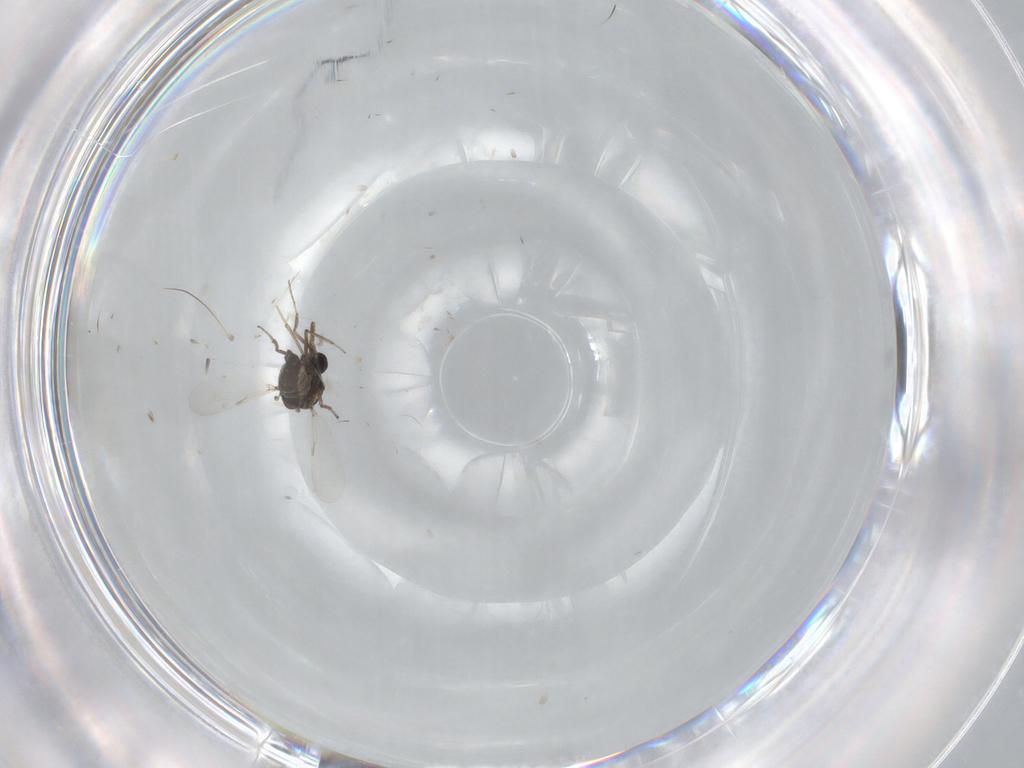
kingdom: Animalia
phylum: Arthropoda
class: Insecta
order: Diptera
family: Ceratopogonidae
